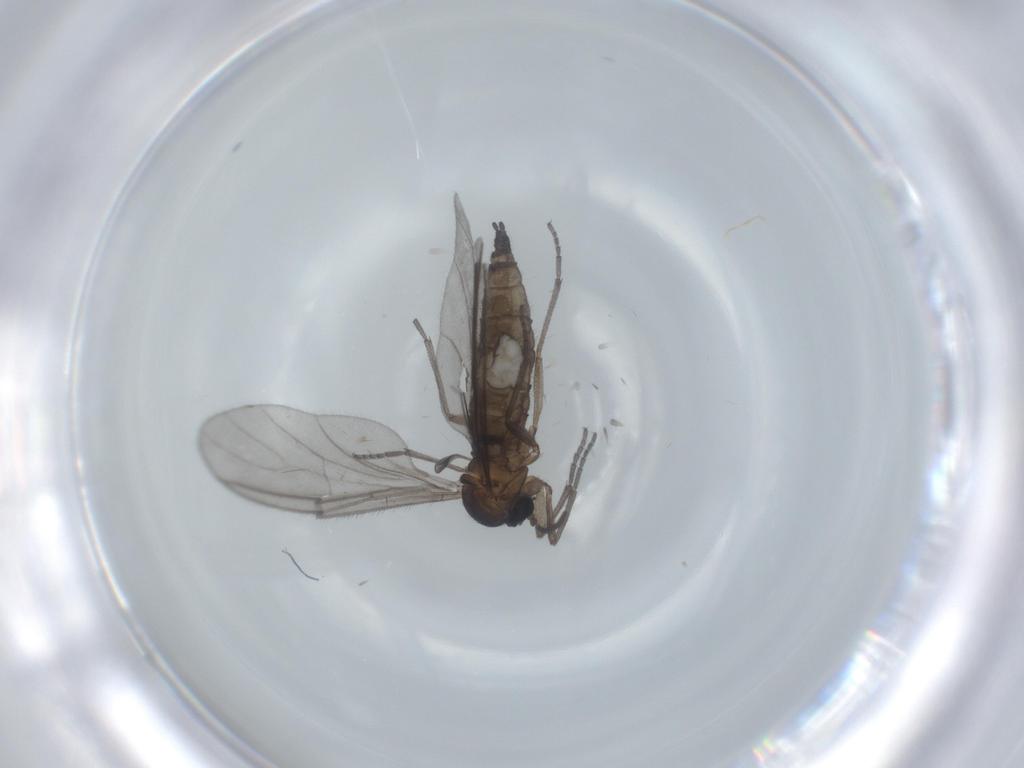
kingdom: Animalia
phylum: Arthropoda
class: Insecta
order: Diptera
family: Sciaridae
